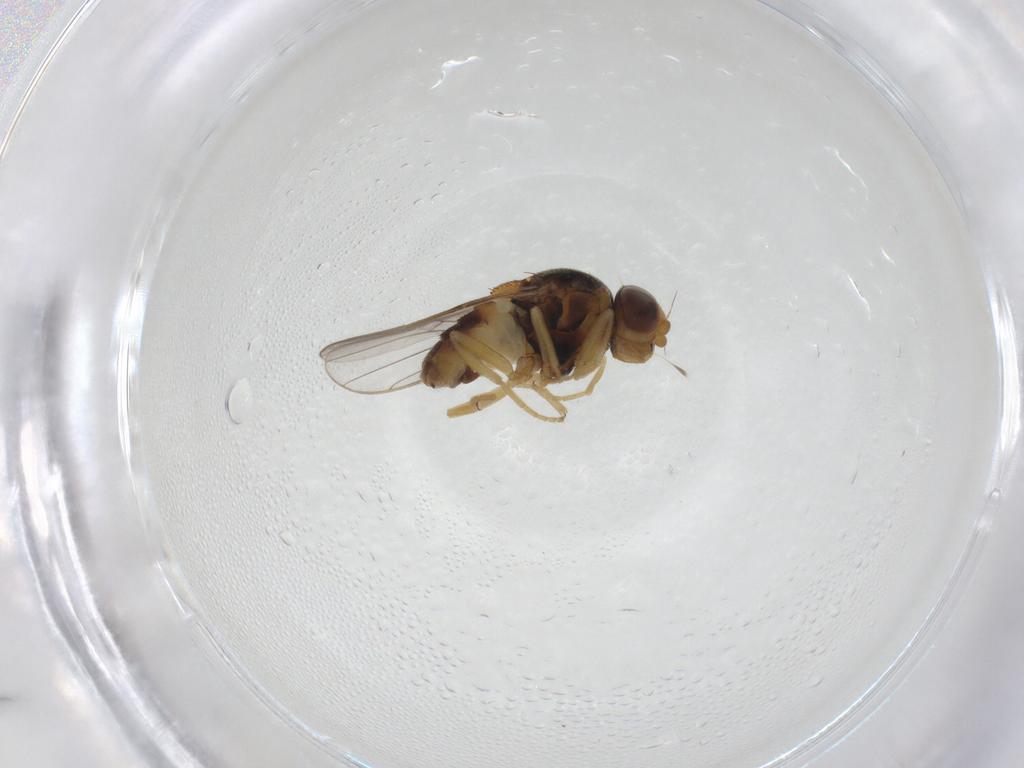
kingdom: Animalia
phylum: Arthropoda
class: Insecta
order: Diptera
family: Chloropidae
